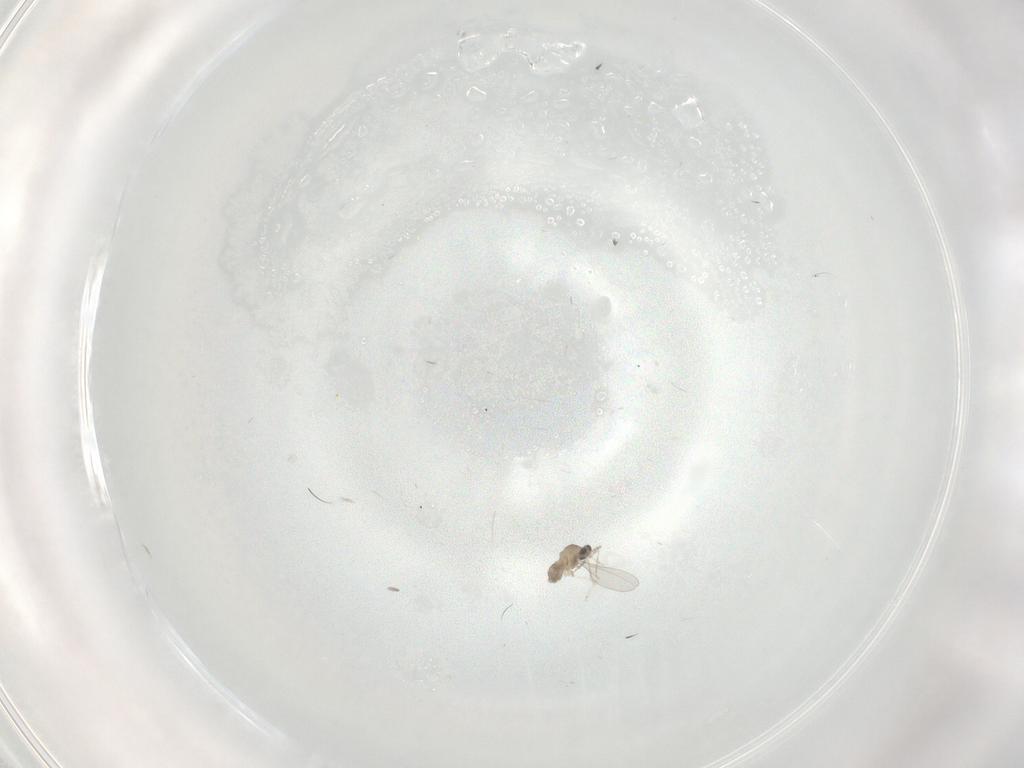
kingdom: Animalia
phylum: Arthropoda
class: Insecta
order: Diptera
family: Cecidomyiidae
